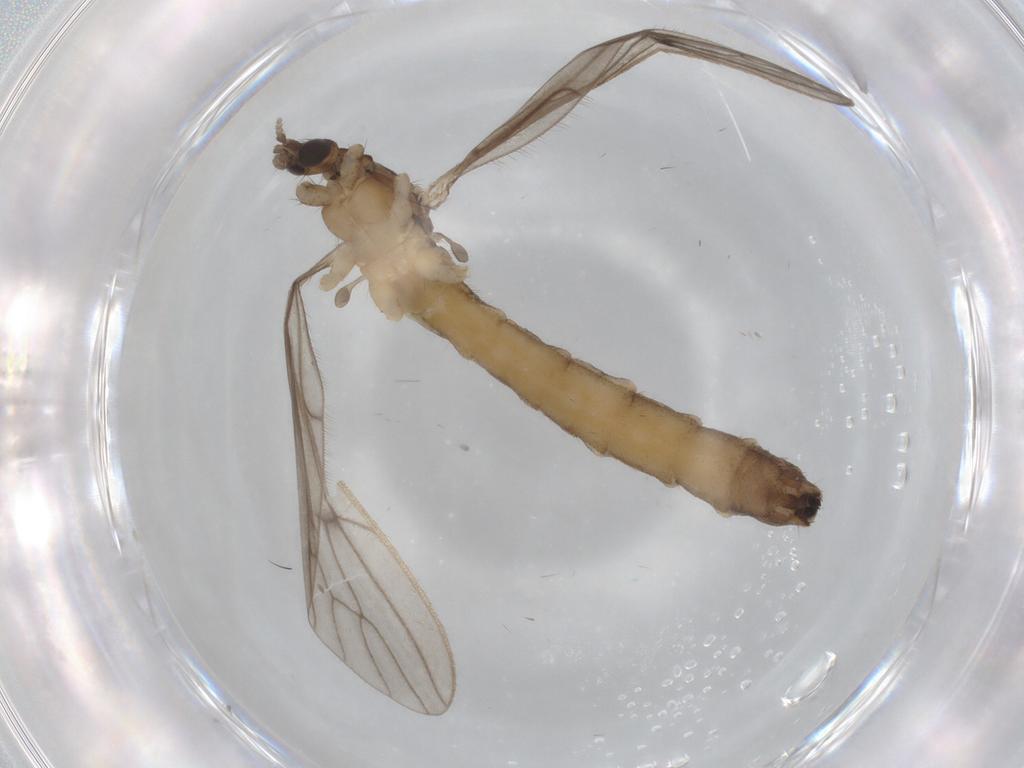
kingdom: Animalia
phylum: Arthropoda
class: Insecta
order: Diptera
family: Limoniidae
